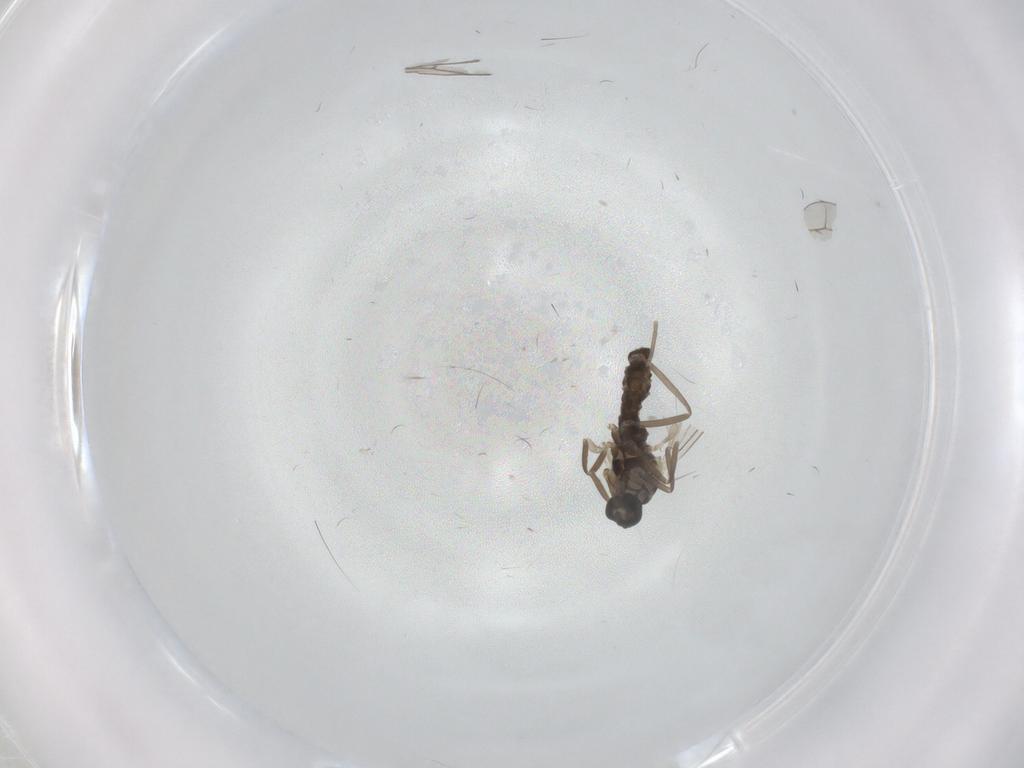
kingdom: Animalia
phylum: Arthropoda
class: Insecta
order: Diptera
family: Cecidomyiidae
